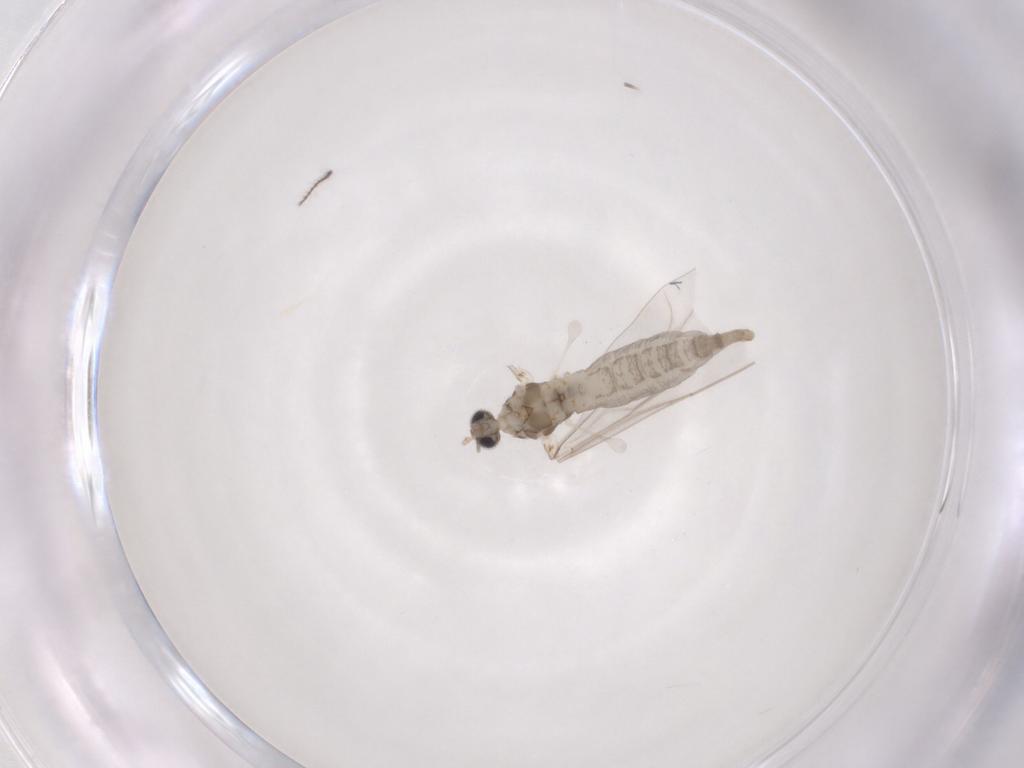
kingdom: Animalia
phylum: Arthropoda
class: Insecta
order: Diptera
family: Cecidomyiidae
